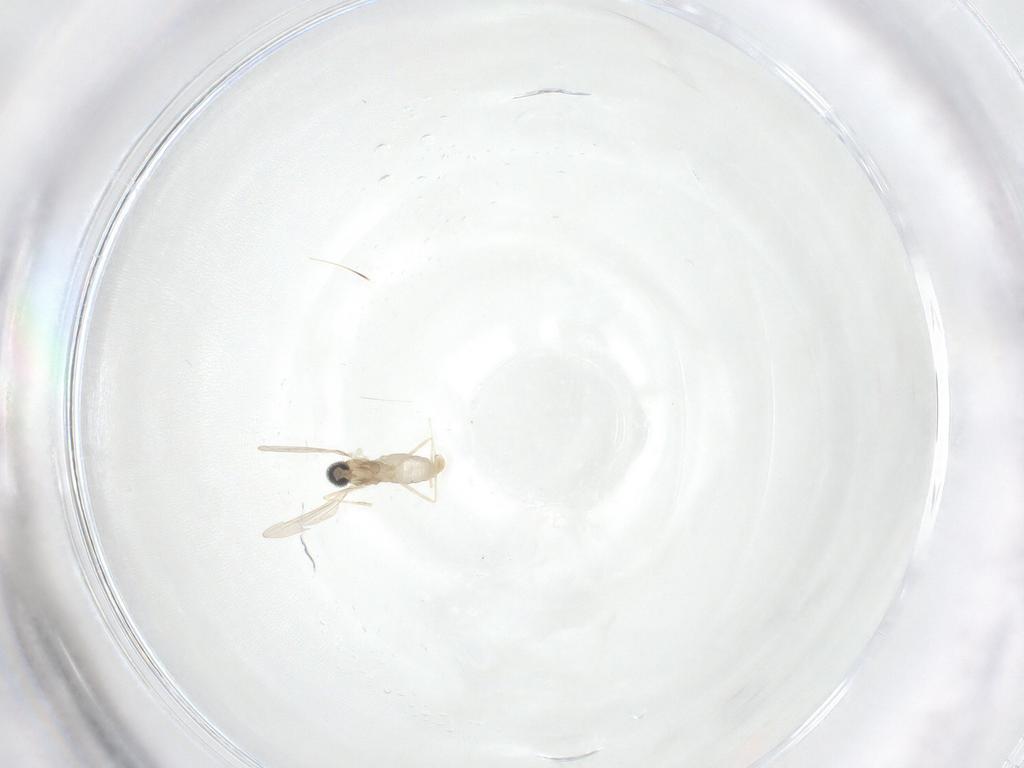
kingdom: Animalia
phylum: Arthropoda
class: Insecta
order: Diptera
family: Cecidomyiidae
